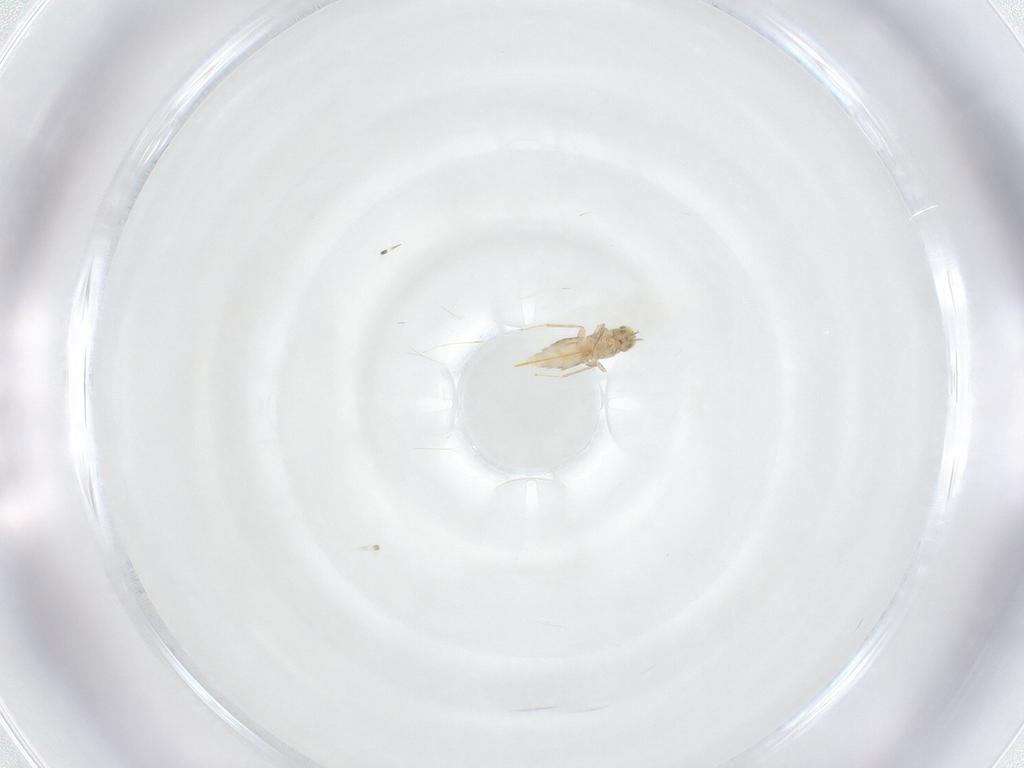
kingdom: Animalia
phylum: Arthropoda
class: Insecta
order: Hymenoptera
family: Aphelinidae
